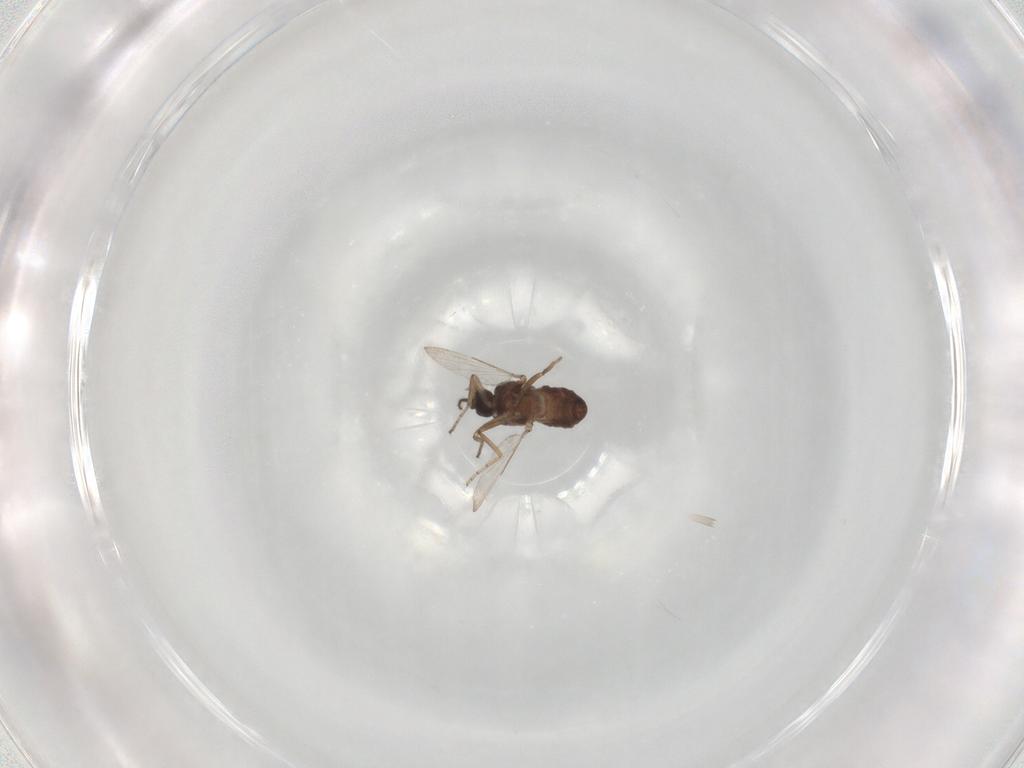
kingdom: Animalia
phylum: Arthropoda
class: Insecta
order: Diptera
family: Ceratopogonidae
